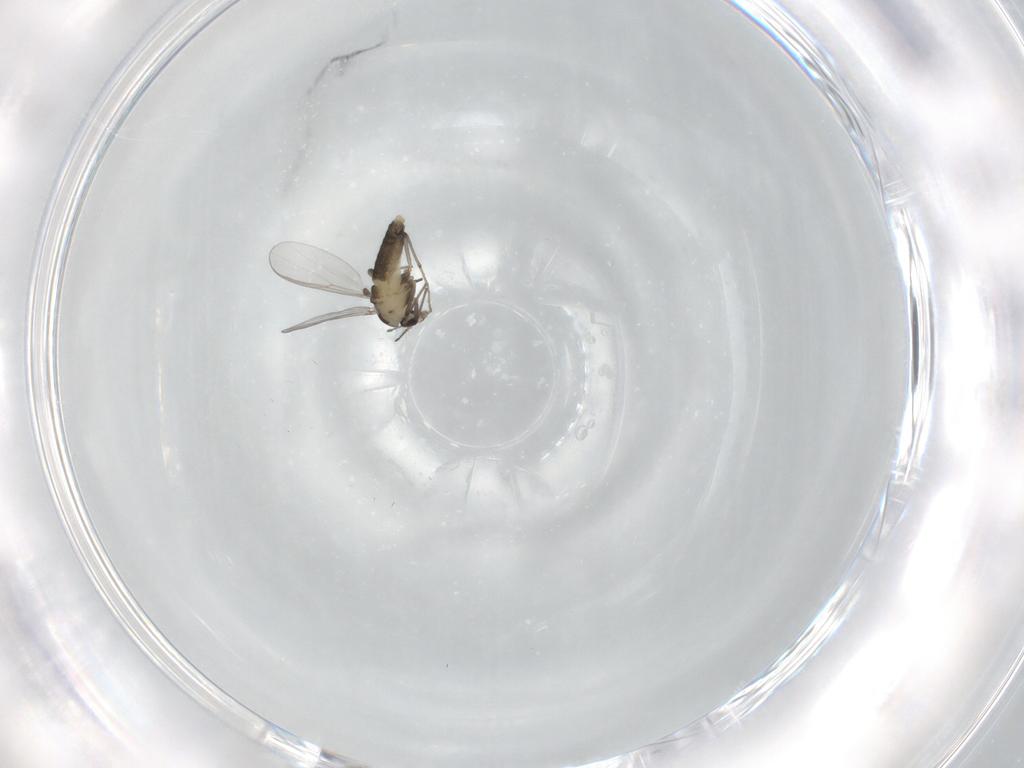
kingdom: Animalia
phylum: Arthropoda
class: Insecta
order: Diptera
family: Chironomidae
